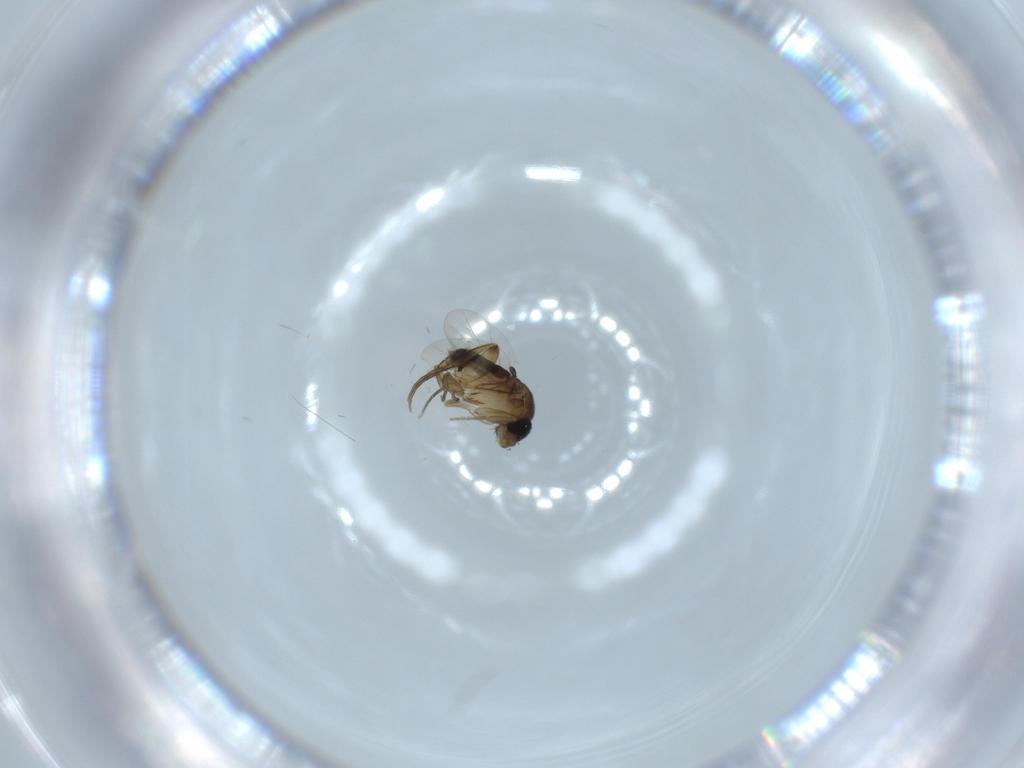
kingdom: Animalia
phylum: Arthropoda
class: Insecta
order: Diptera
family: Phoridae
